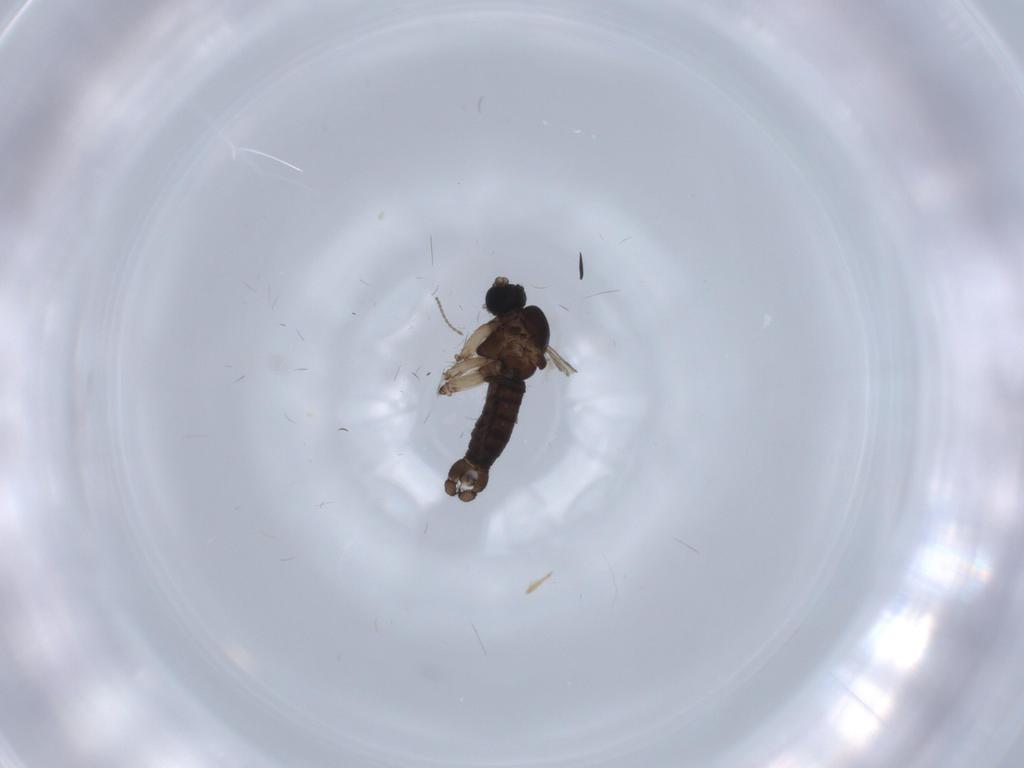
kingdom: Animalia
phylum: Arthropoda
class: Insecta
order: Diptera
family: Sciaridae
